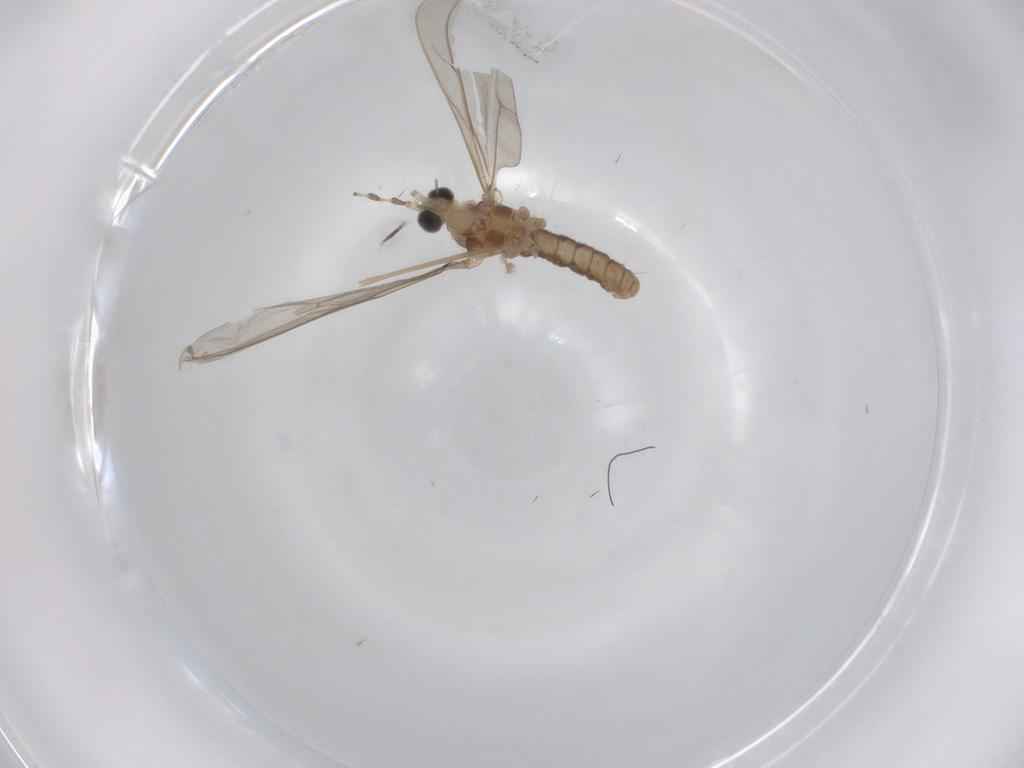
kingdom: Animalia
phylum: Arthropoda
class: Insecta
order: Diptera
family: Cecidomyiidae
